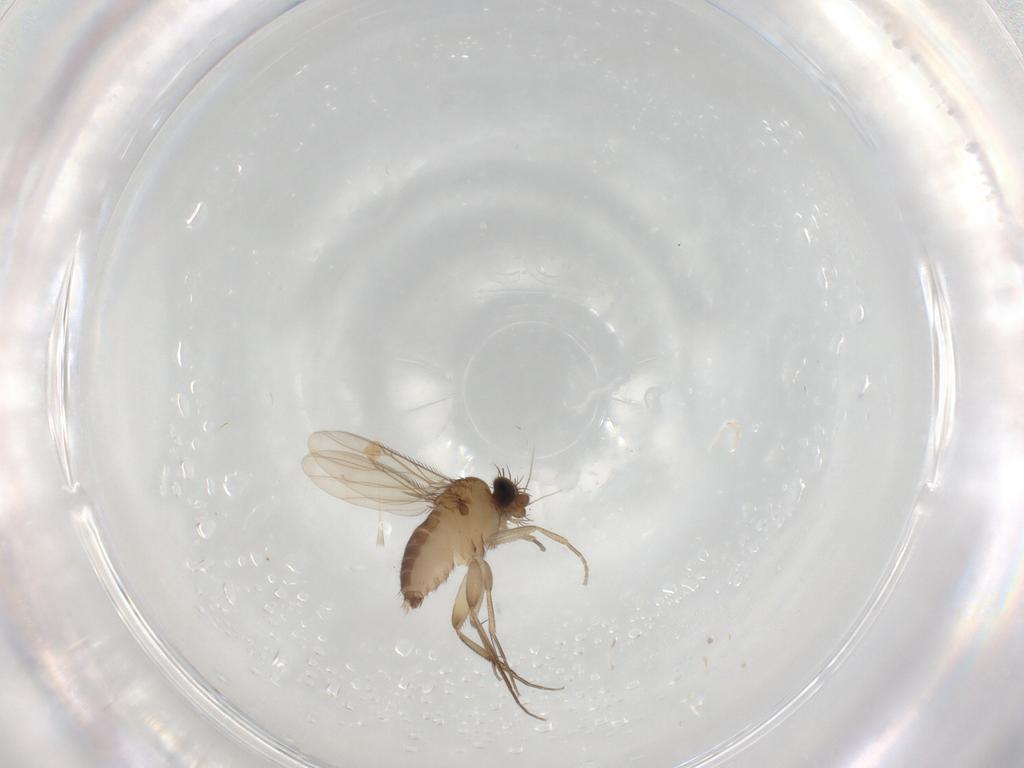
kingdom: Animalia
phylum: Arthropoda
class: Insecta
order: Diptera
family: Phoridae
